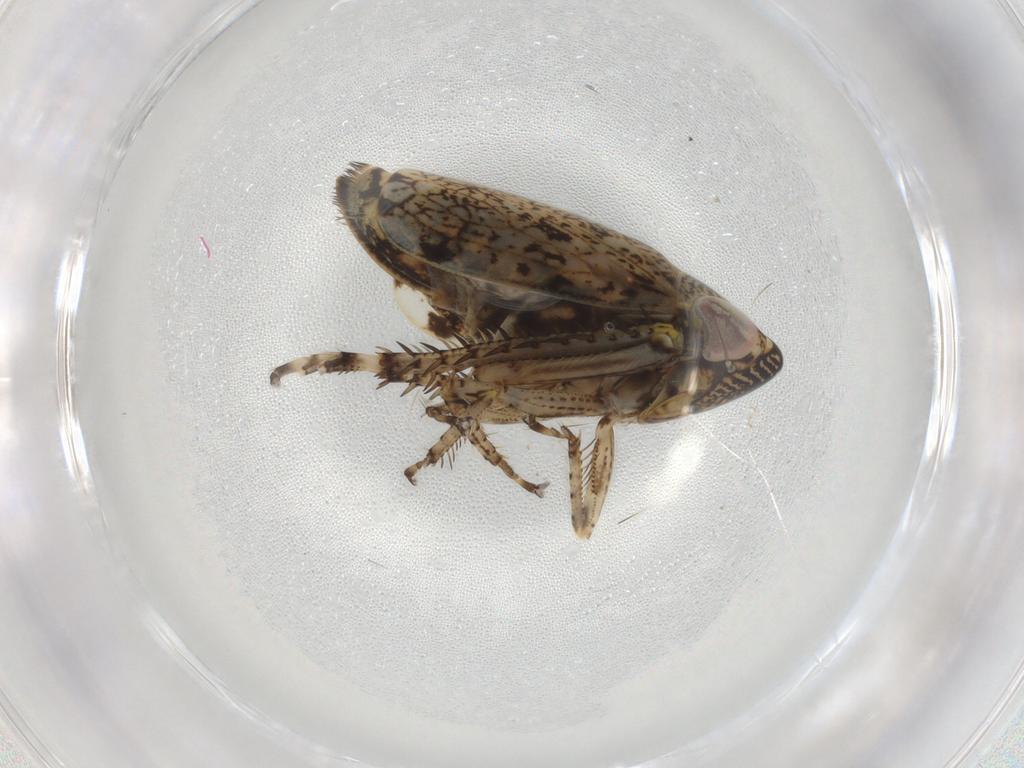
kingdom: Animalia
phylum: Arthropoda
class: Insecta
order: Hemiptera
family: Cicadellidae
